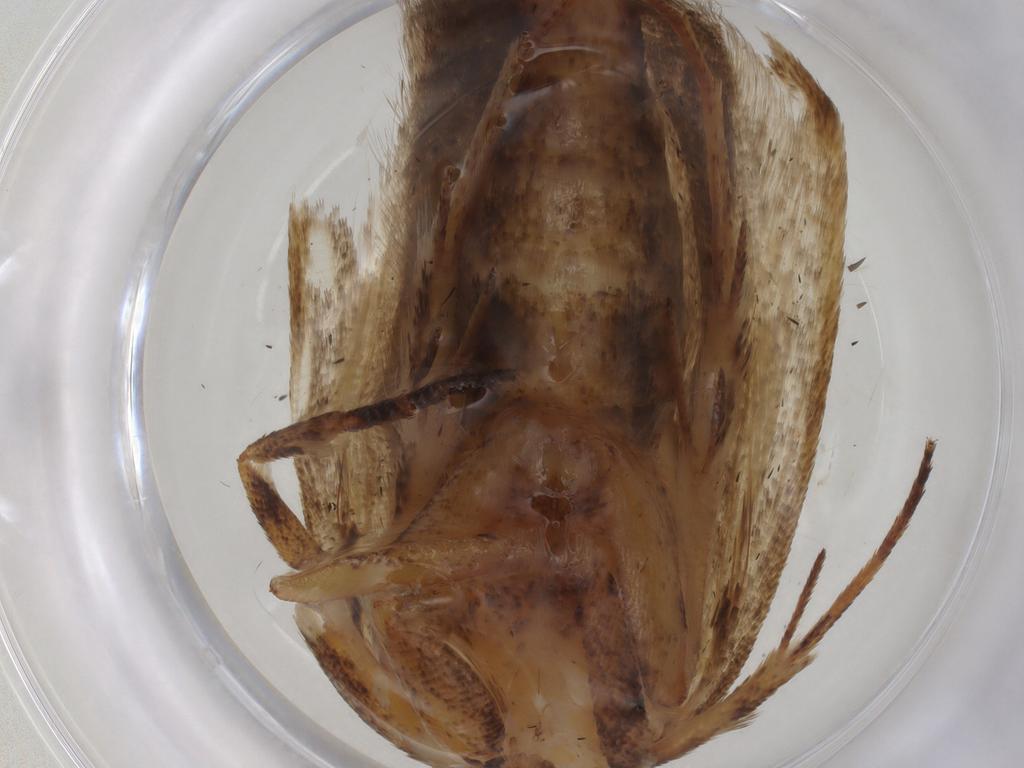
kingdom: Animalia
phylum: Arthropoda
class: Insecta
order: Lepidoptera
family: Gelechiidae
